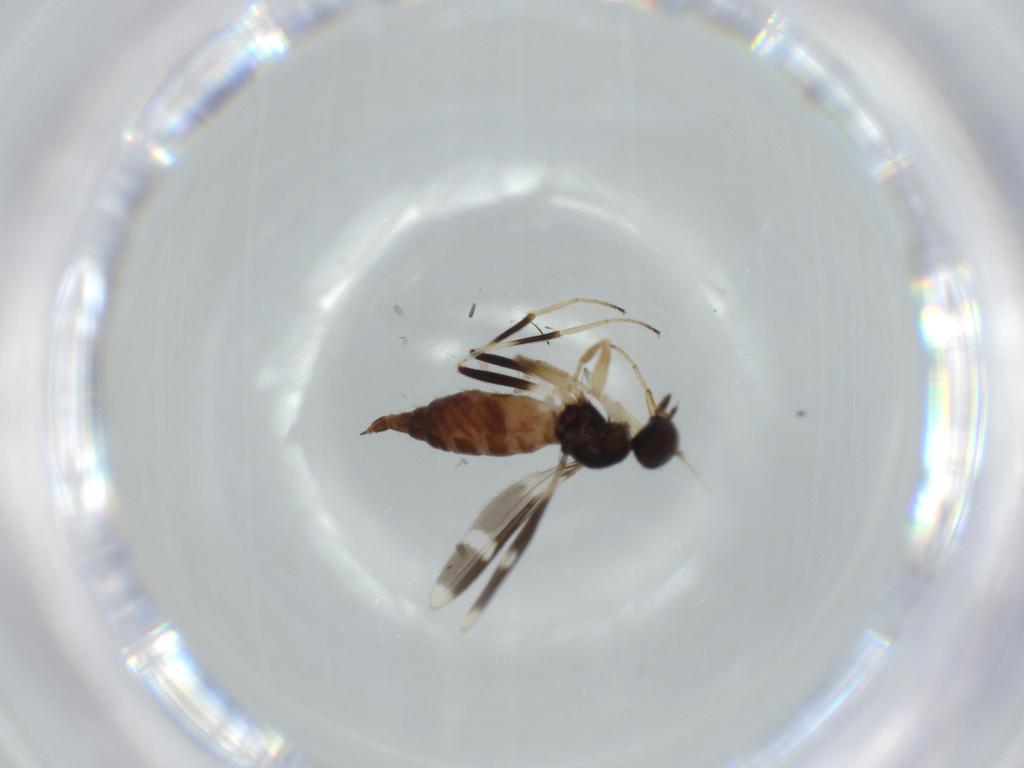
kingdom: Animalia
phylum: Arthropoda
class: Insecta
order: Diptera
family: Hybotidae
